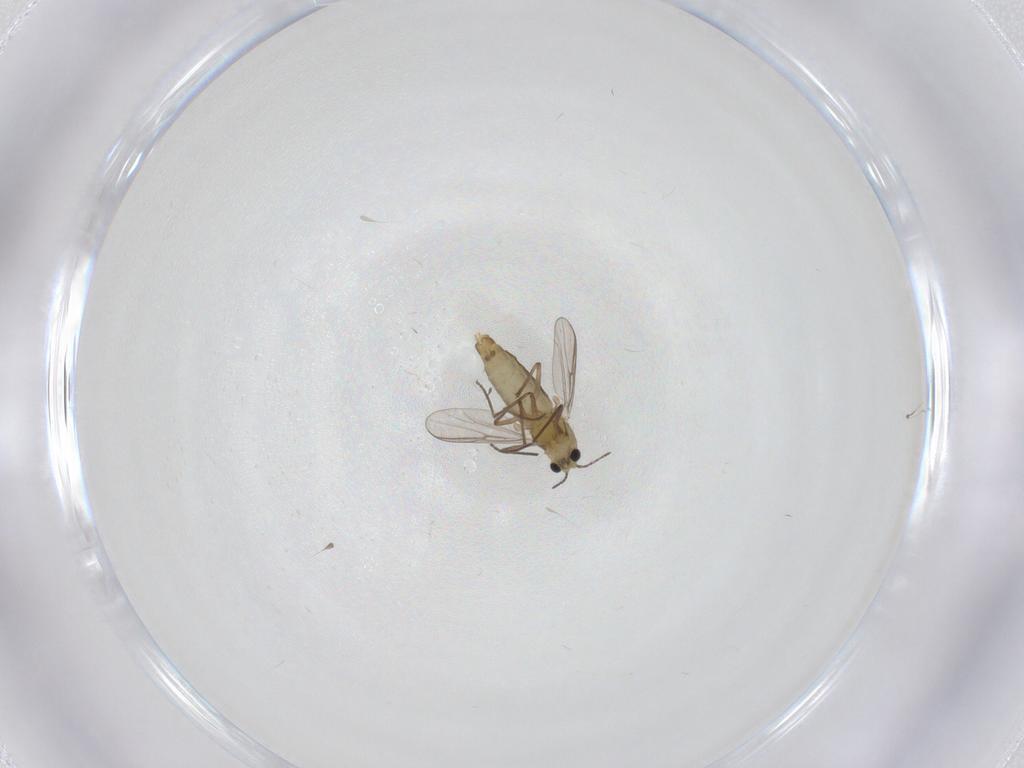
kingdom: Animalia
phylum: Arthropoda
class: Insecta
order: Diptera
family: Chironomidae
